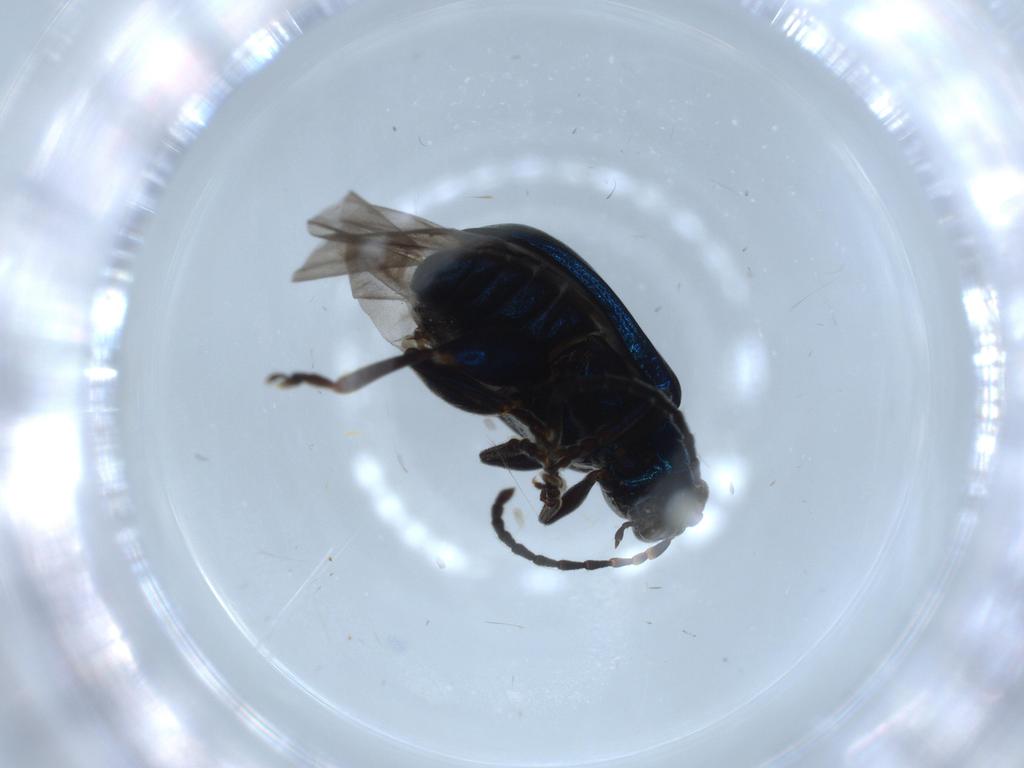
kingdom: Animalia
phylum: Arthropoda
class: Insecta
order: Coleoptera
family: Chrysomelidae
